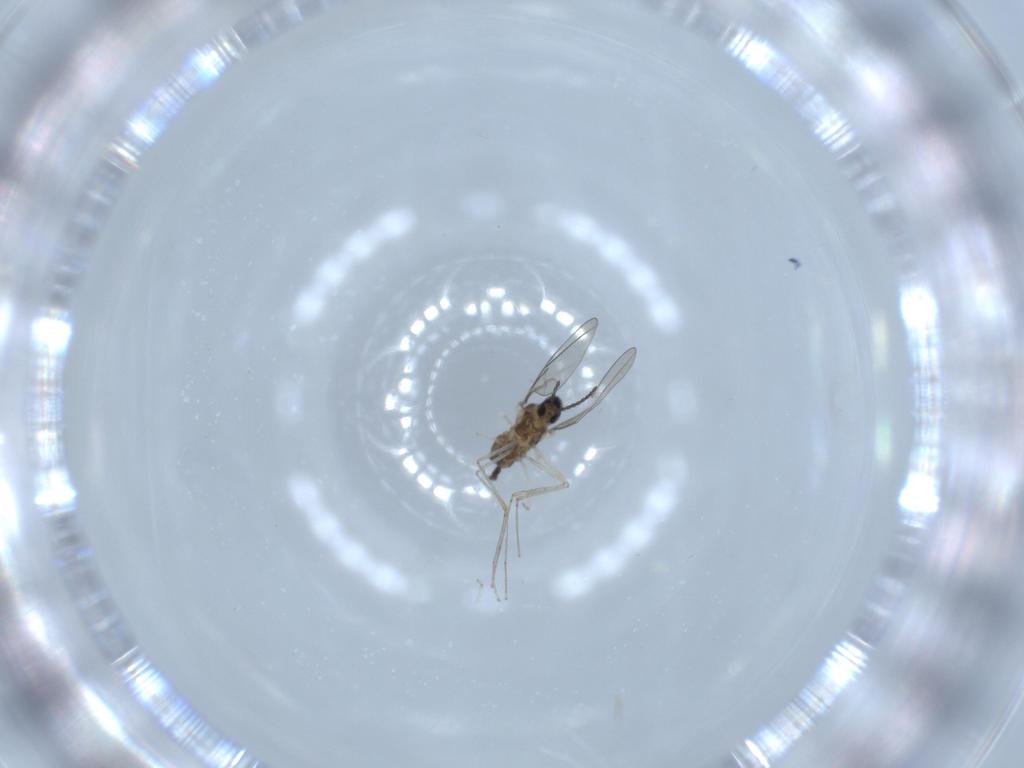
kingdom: Animalia
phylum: Arthropoda
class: Insecta
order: Diptera
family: Cecidomyiidae
